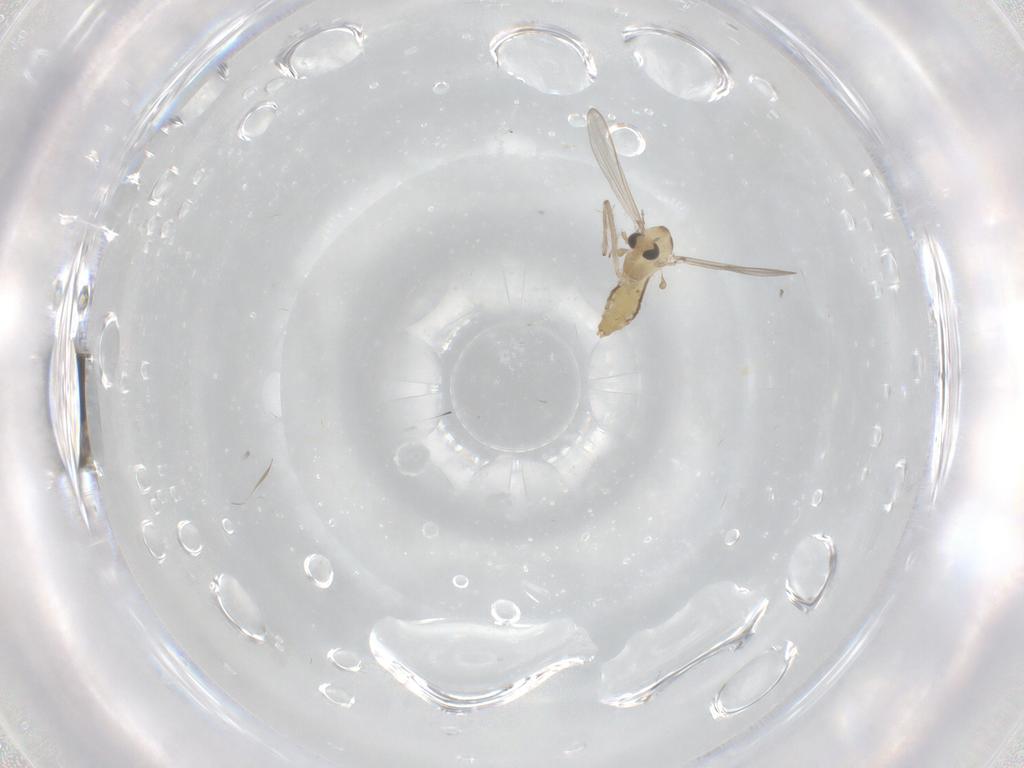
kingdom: Animalia
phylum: Arthropoda
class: Insecta
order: Diptera
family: Chironomidae
